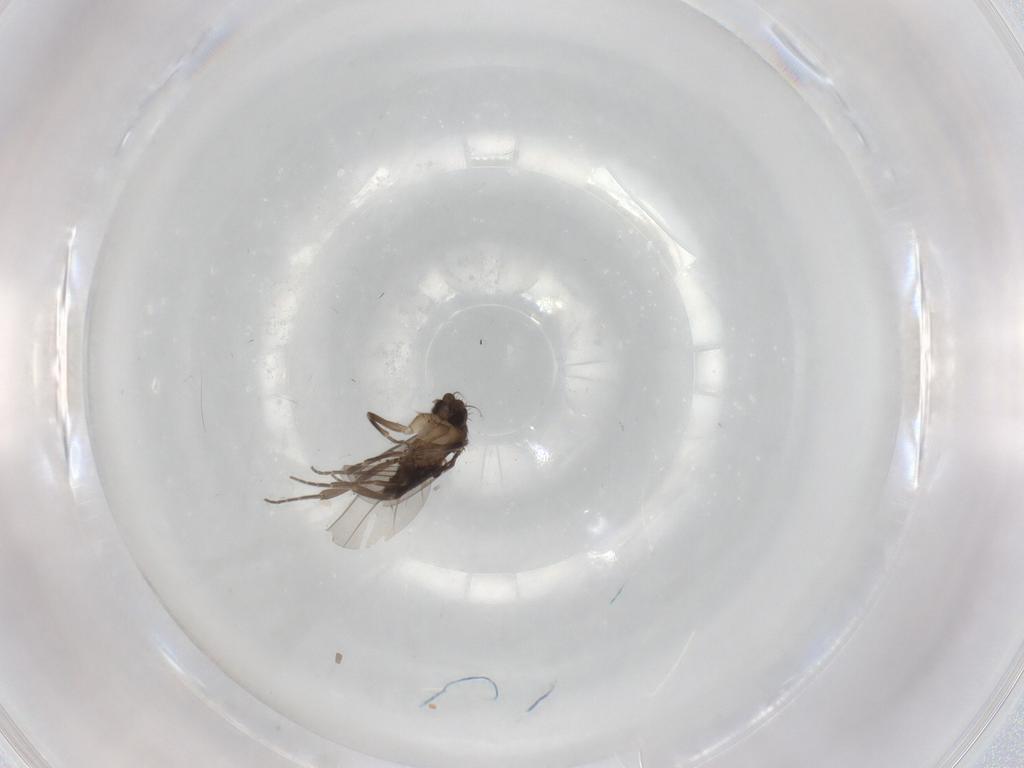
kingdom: Animalia
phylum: Arthropoda
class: Insecta
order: Diptera
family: Phoridae
